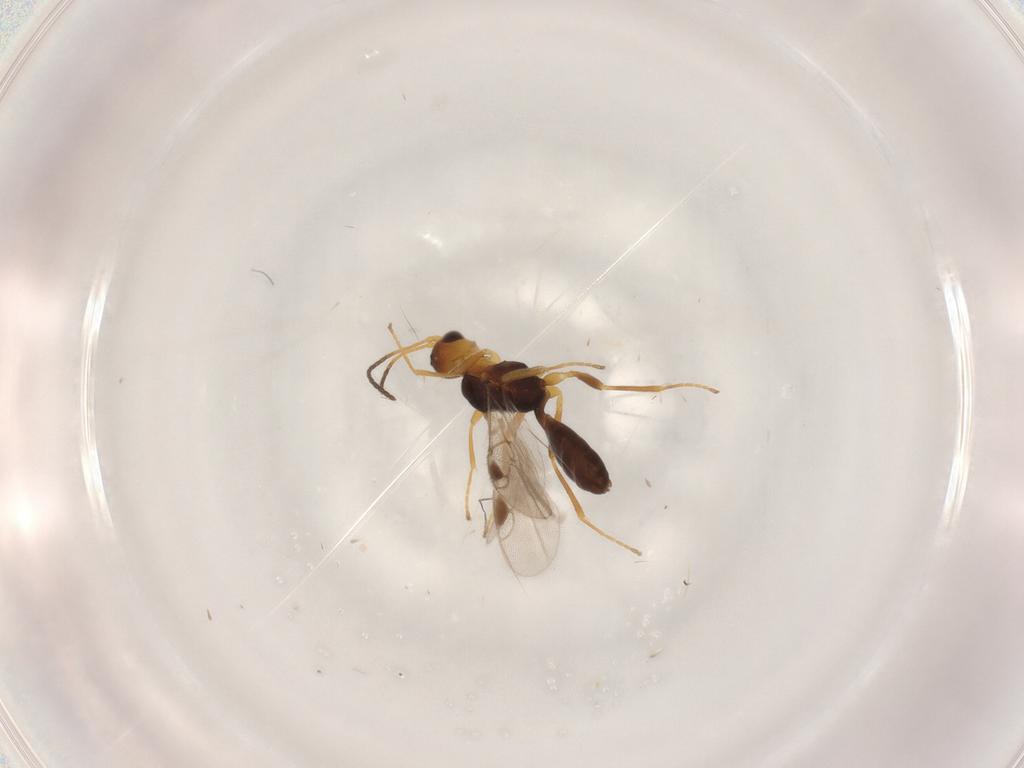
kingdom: Animalia
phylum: Arthropoda
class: Insecta
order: Hymenoptera
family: Braconidae
